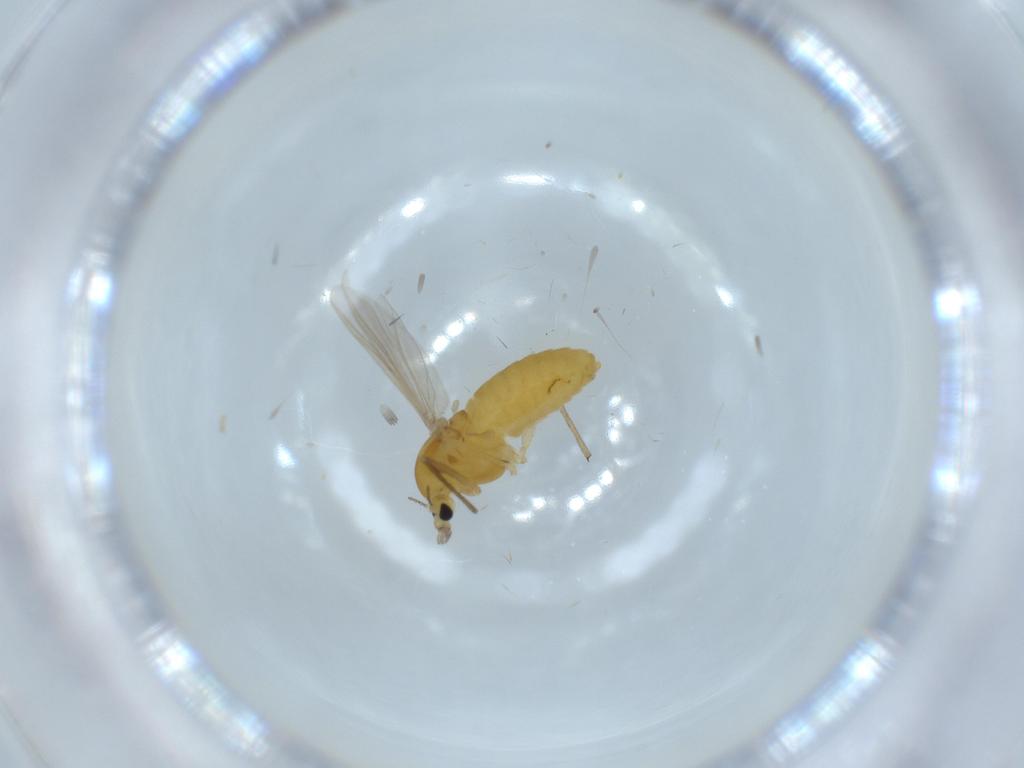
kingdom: Animalia
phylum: Arthropoda
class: Insecta
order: Diptera
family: Chironomidae
